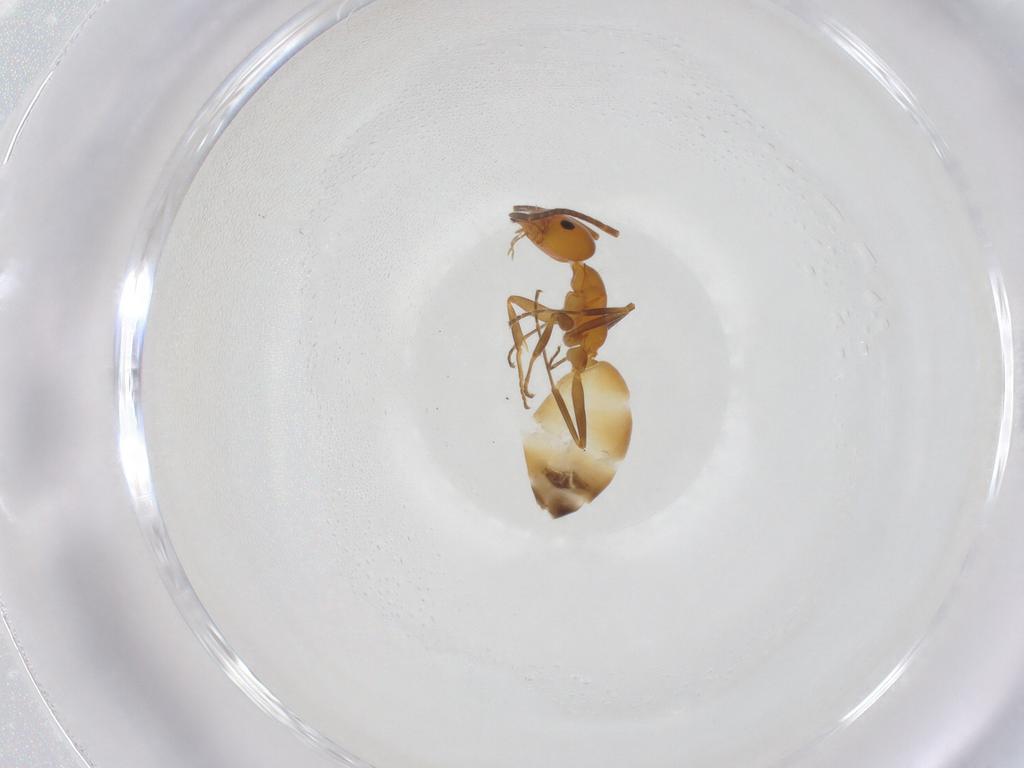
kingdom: Animalia
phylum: Arthropoda
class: Insecta
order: Hymenoptera
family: Formicidae
